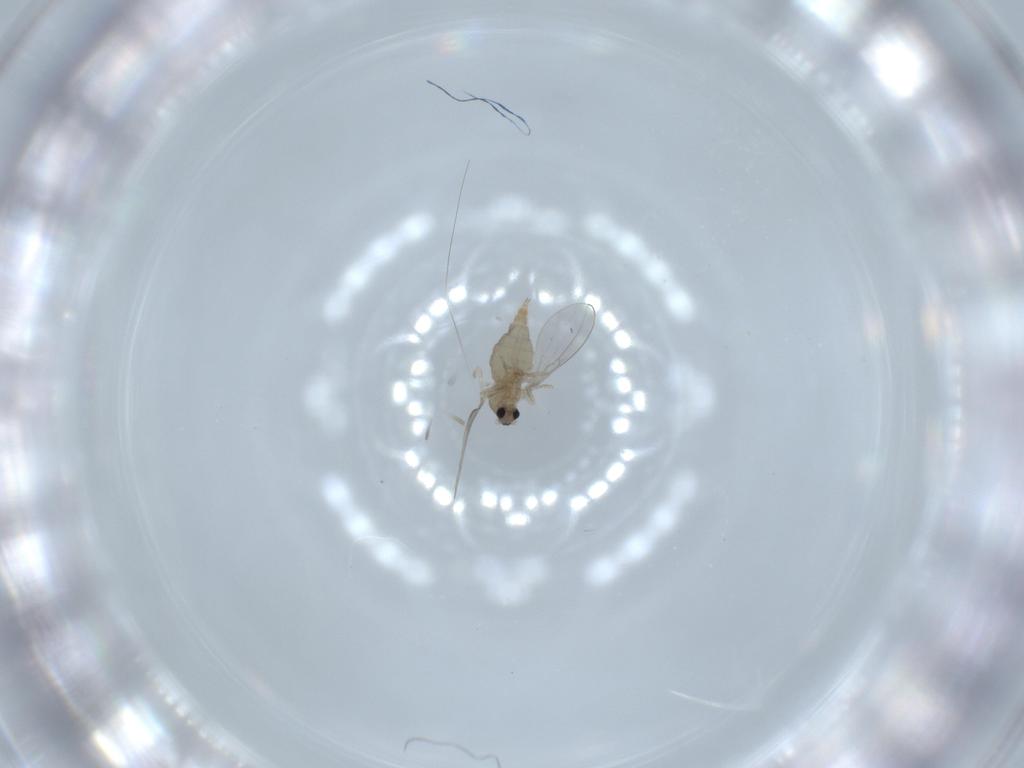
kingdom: Animalia
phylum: Arthropoda
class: Insecta
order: Diptera
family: Cecidomyiidae
